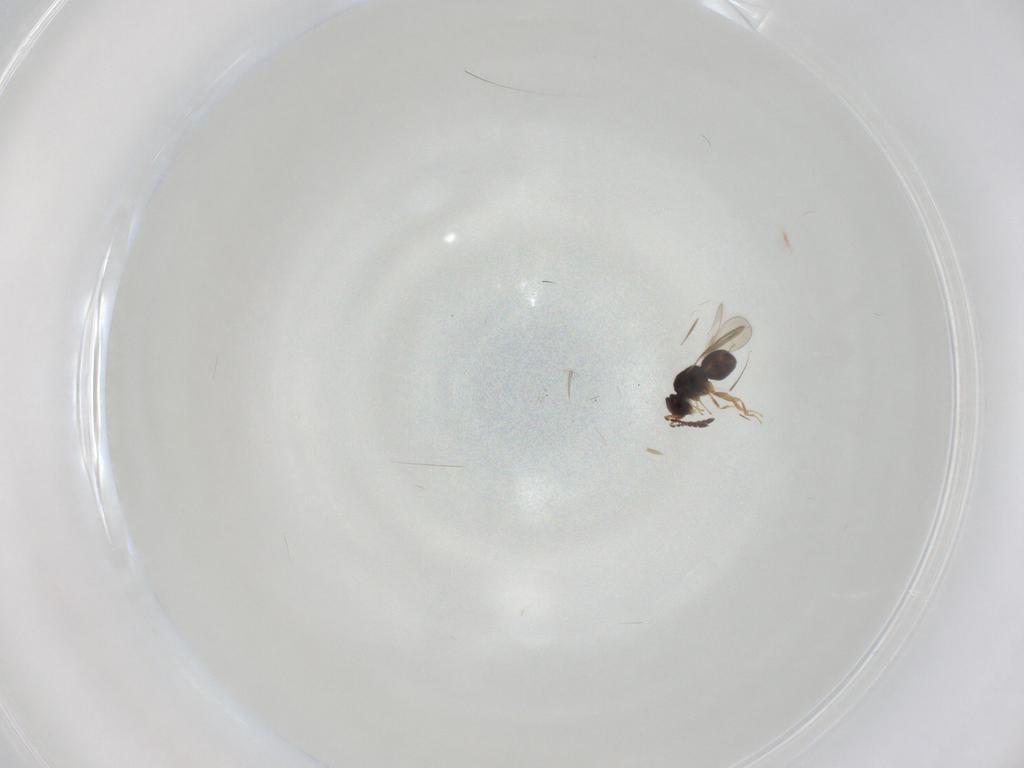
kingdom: Animalia
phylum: Arthropoda
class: Insecta
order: Hymenoptera
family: Ceraphronidae
